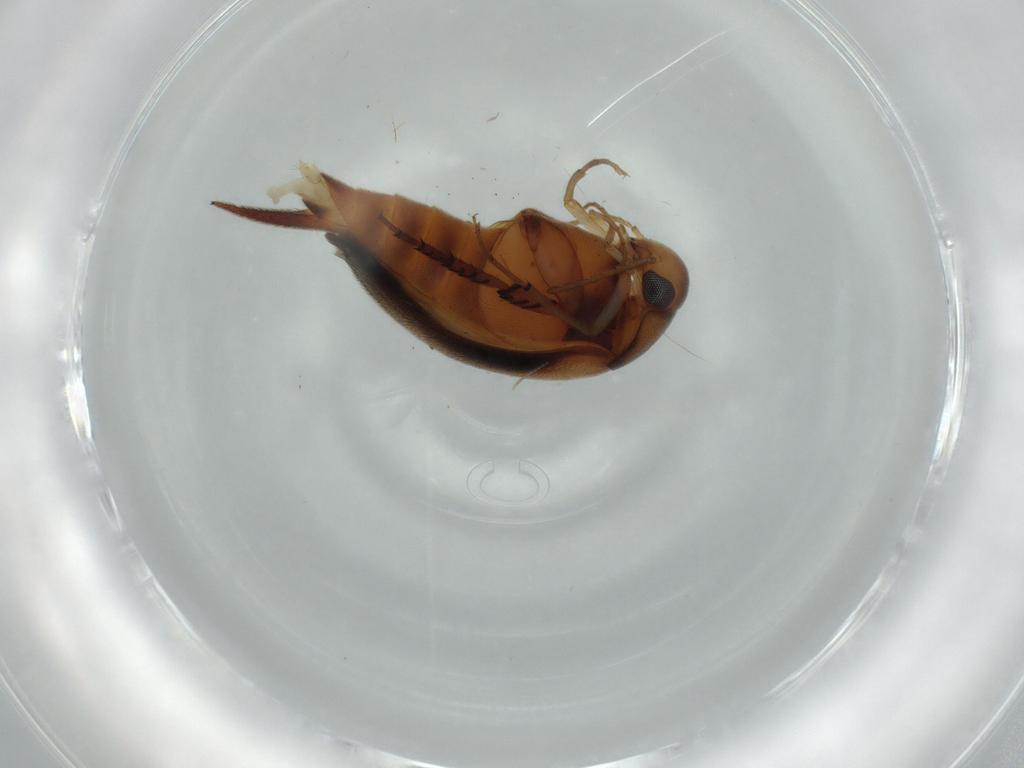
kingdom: Animalia
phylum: Arthropoda
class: Insecta
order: Coleoptera
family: Mordellidae
